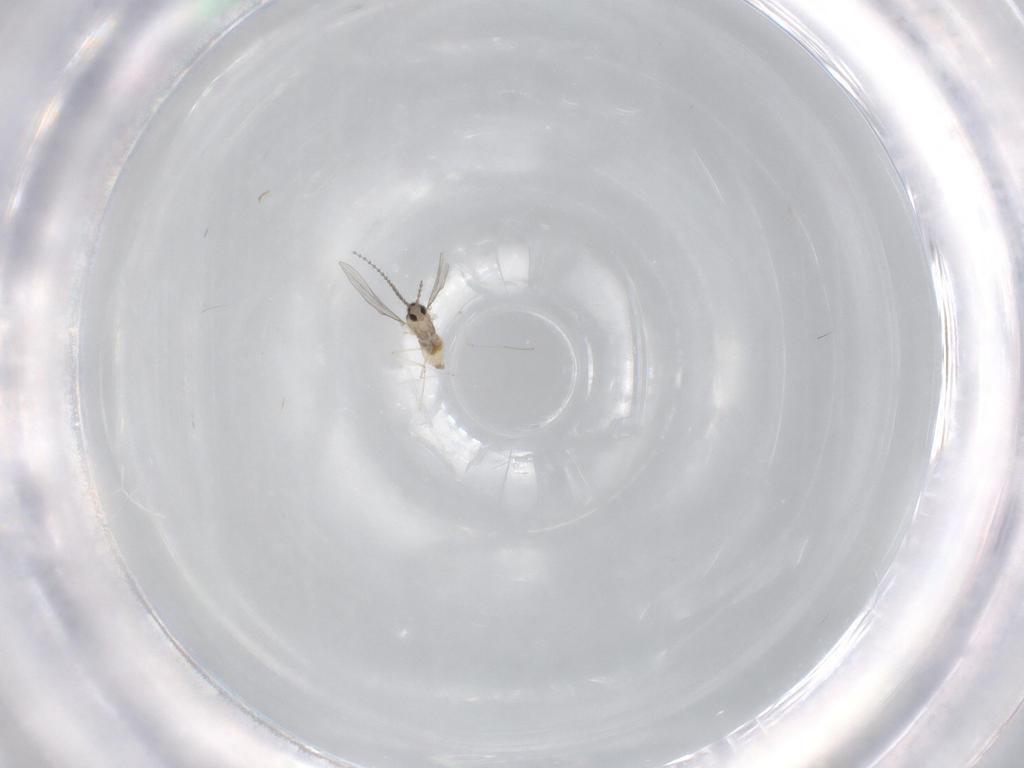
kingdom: Animalia
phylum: Arthropoda
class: Insecta
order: Diptera
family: Cecidomyiidae
